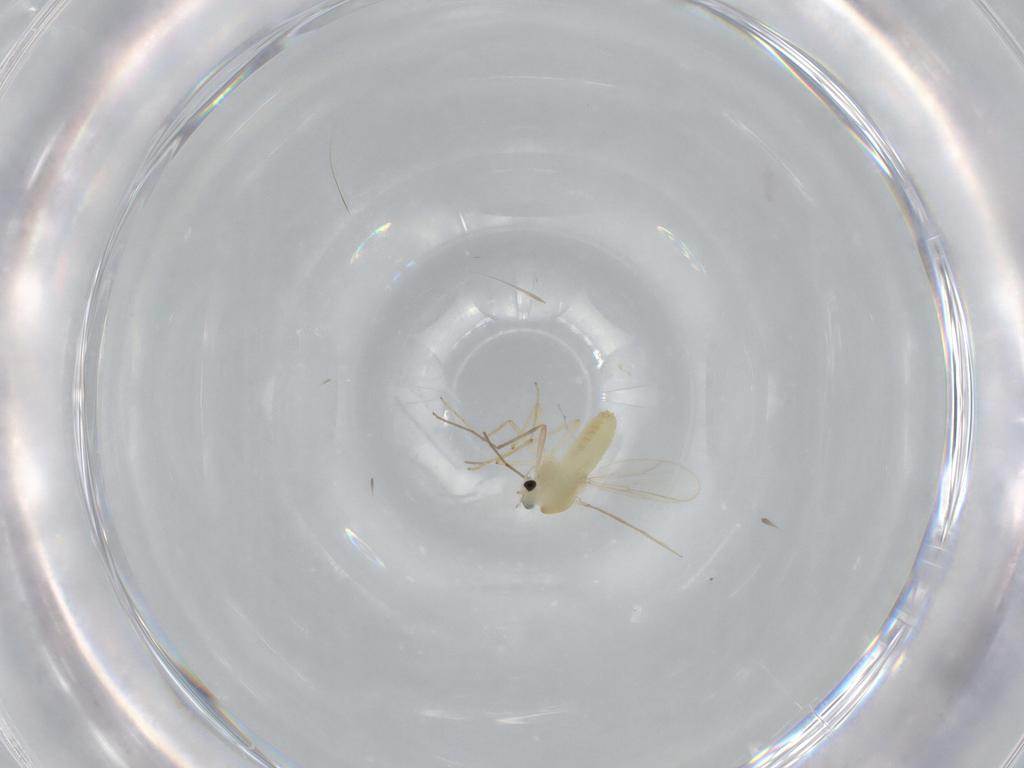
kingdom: Animalia
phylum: Arthropoda
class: Insecta
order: Diptera
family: Chironomidae
